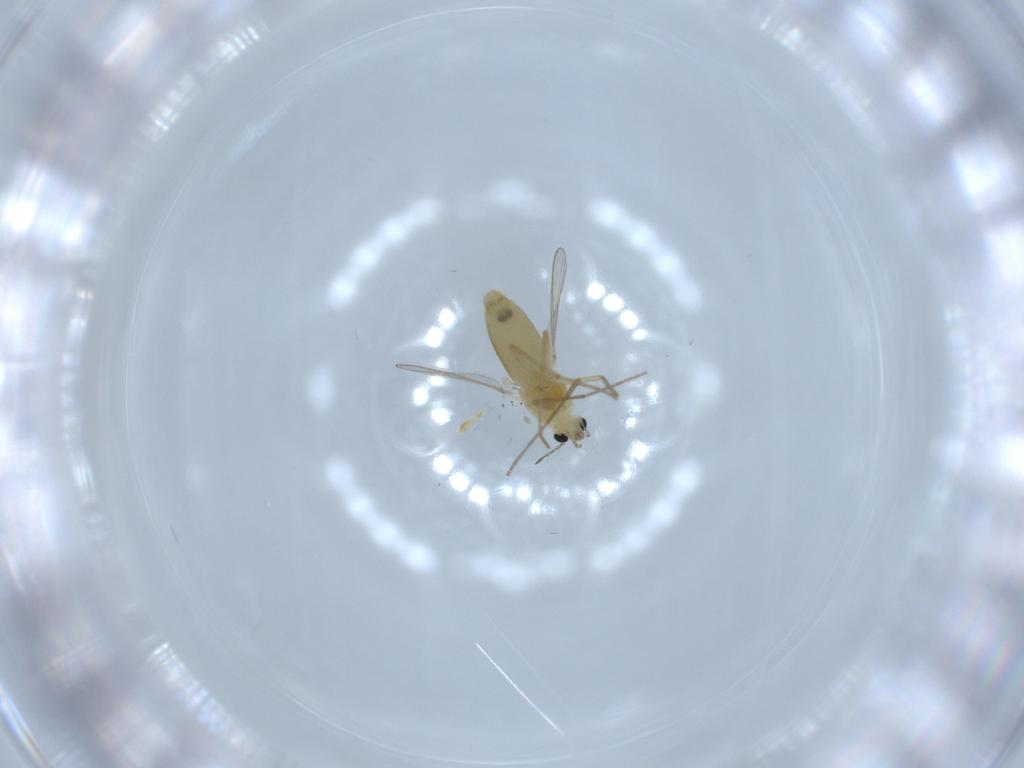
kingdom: Animalia
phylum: Arthropoda
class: Insecta
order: Diptera
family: Chironomidae
